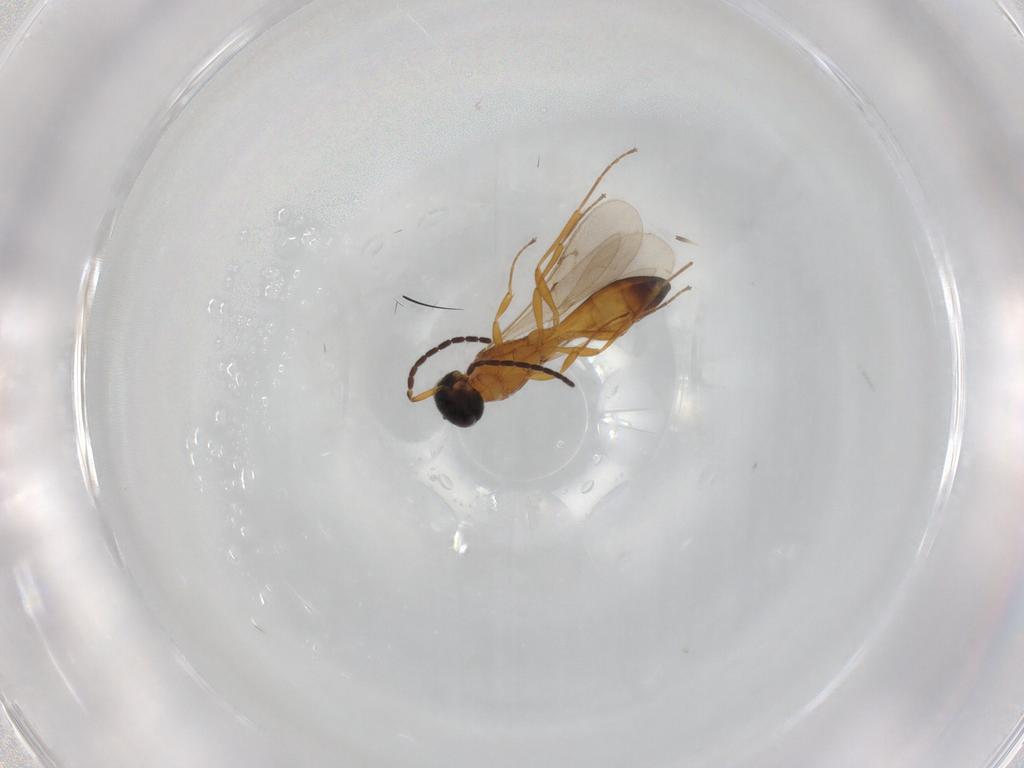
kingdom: Animalia
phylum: Arthropoda
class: Insecta
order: Hymenoptera
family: Scelionidae
